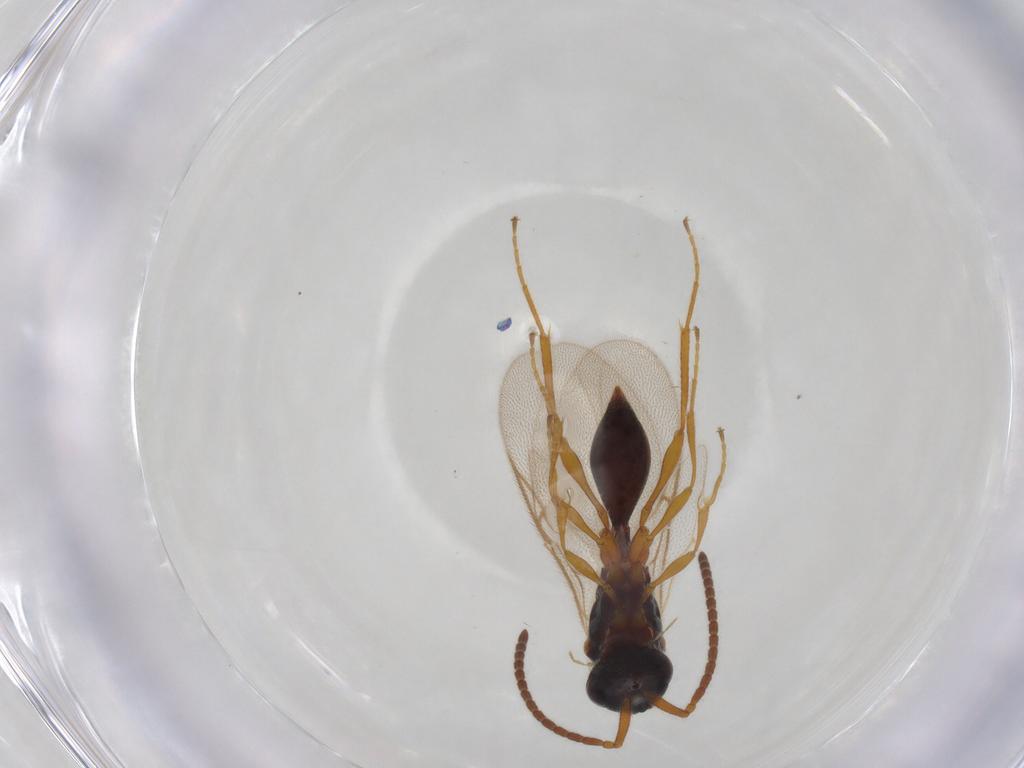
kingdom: Animalia
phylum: Arthropoda
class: Insecta
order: Hymenoptera
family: Diapriidae
